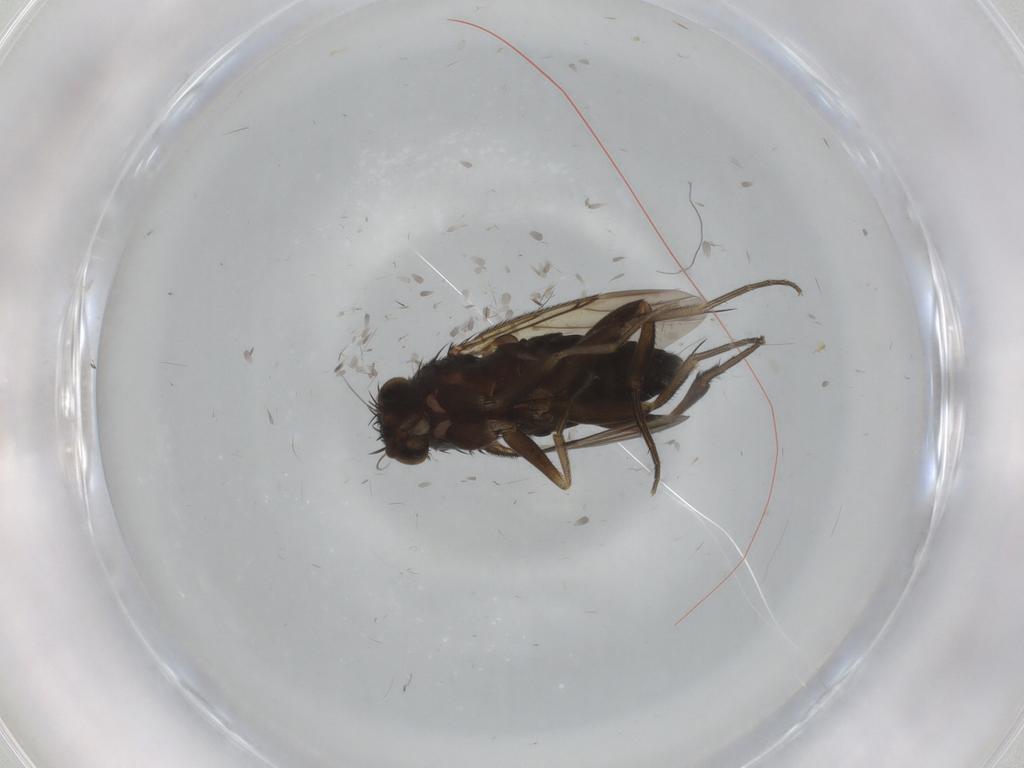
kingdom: Animalia
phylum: Arthropoda
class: Insecta
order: Diptera
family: Phoridae
